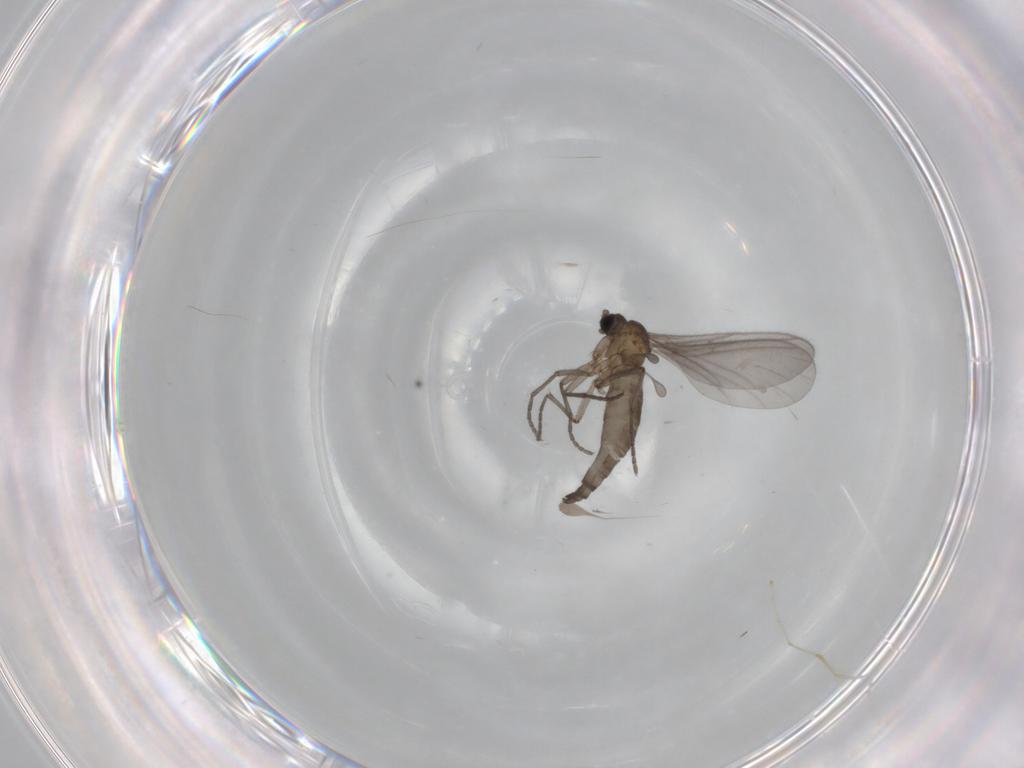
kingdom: Animalia
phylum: Arthropoda
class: Insecta
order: Diptera
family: Sciaridae
